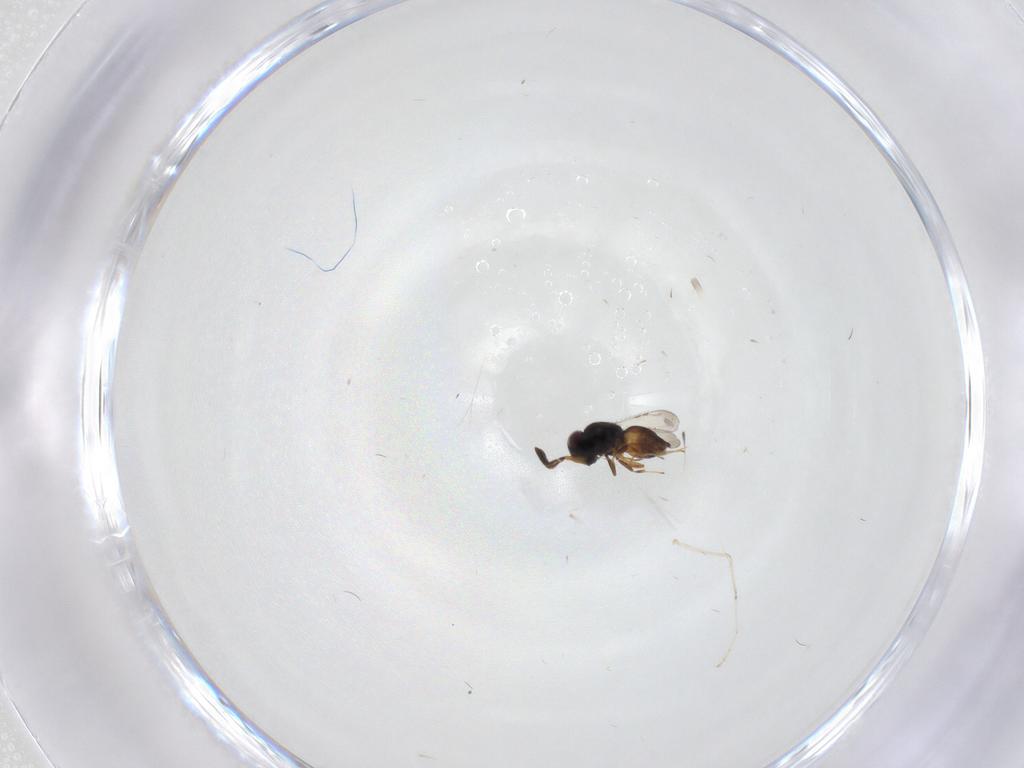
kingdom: Animalia
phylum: Arthropoda
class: Insecta
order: Diptera
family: Cecidomyiidae
